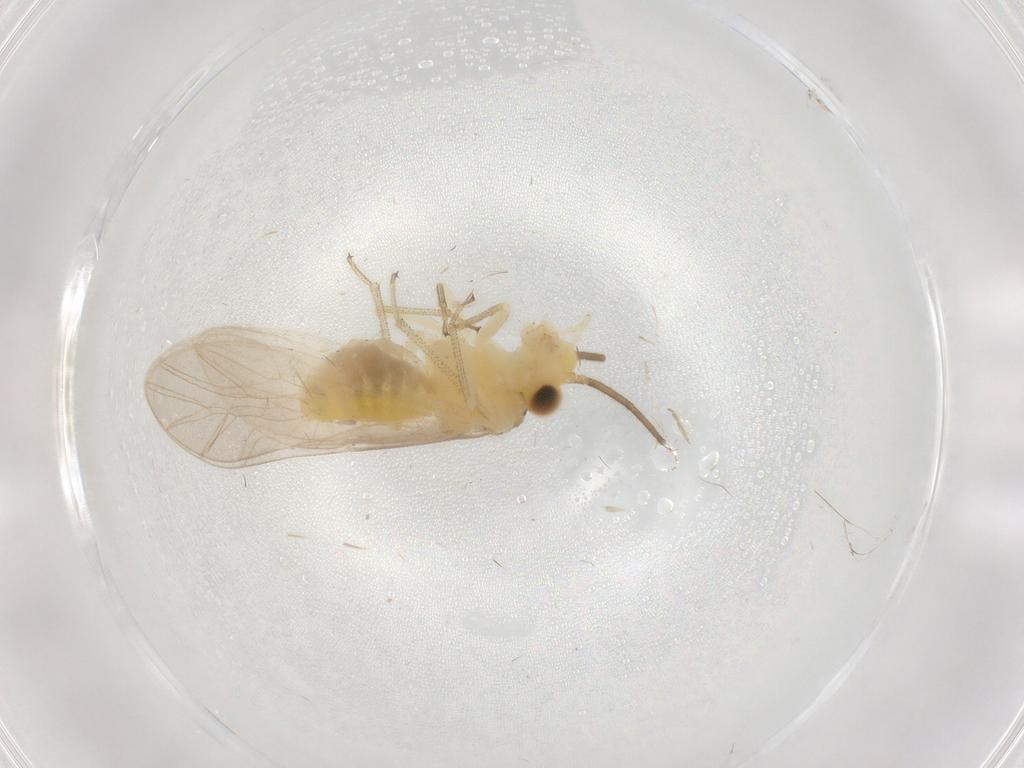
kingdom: Animalia
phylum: Arthropoda
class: Insecta
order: Psocodea
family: Caeciliusidae
